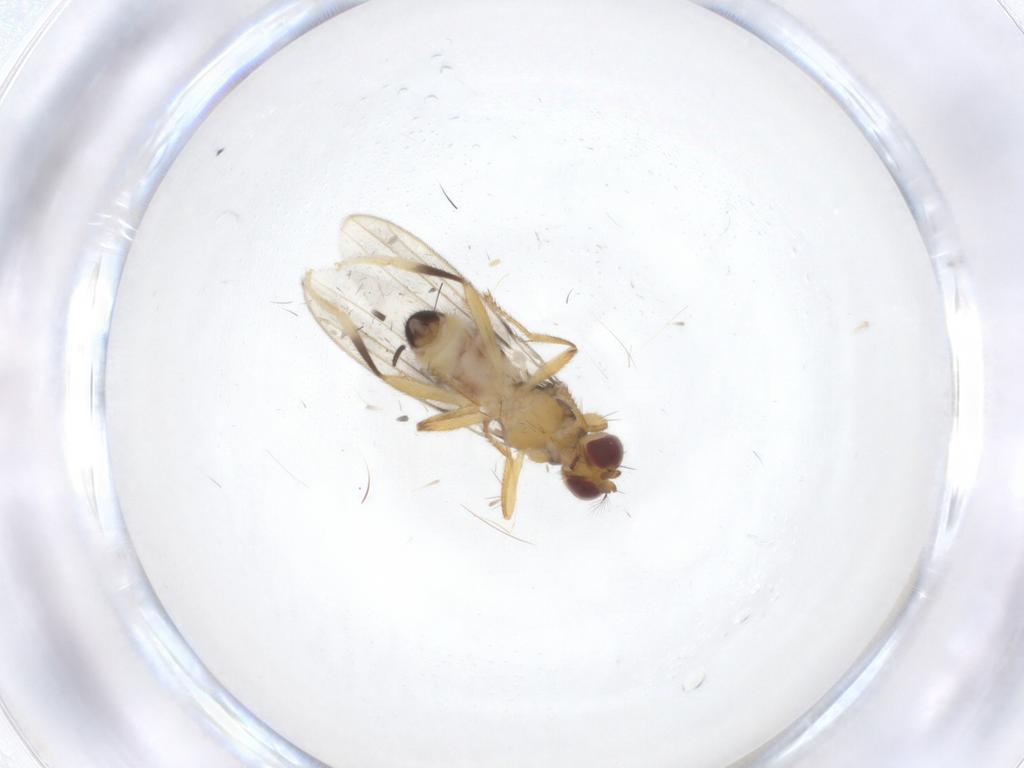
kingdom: Animalia
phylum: Arthropoda
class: Insecta
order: Diptera
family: Periscelididae
